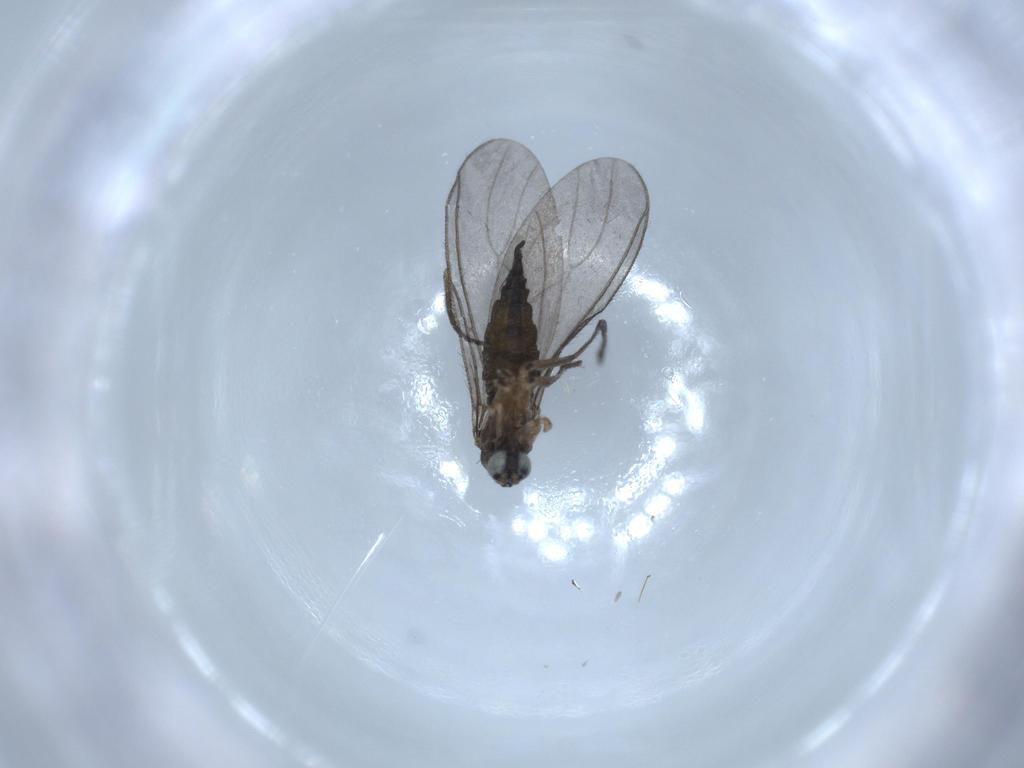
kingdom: Animalia
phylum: Arthropoda
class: Insecta
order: Diptera
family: Sciaridae
